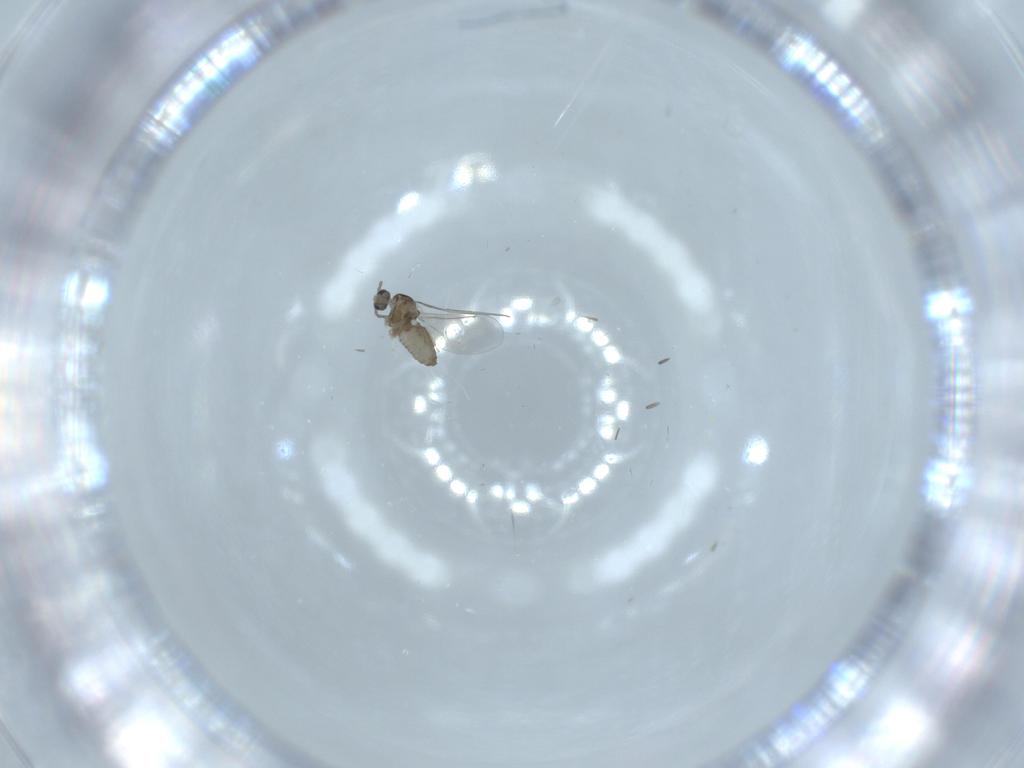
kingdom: Animalia
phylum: Arthropoda
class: Insecta
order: Diptera
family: Cecidomyiidae
